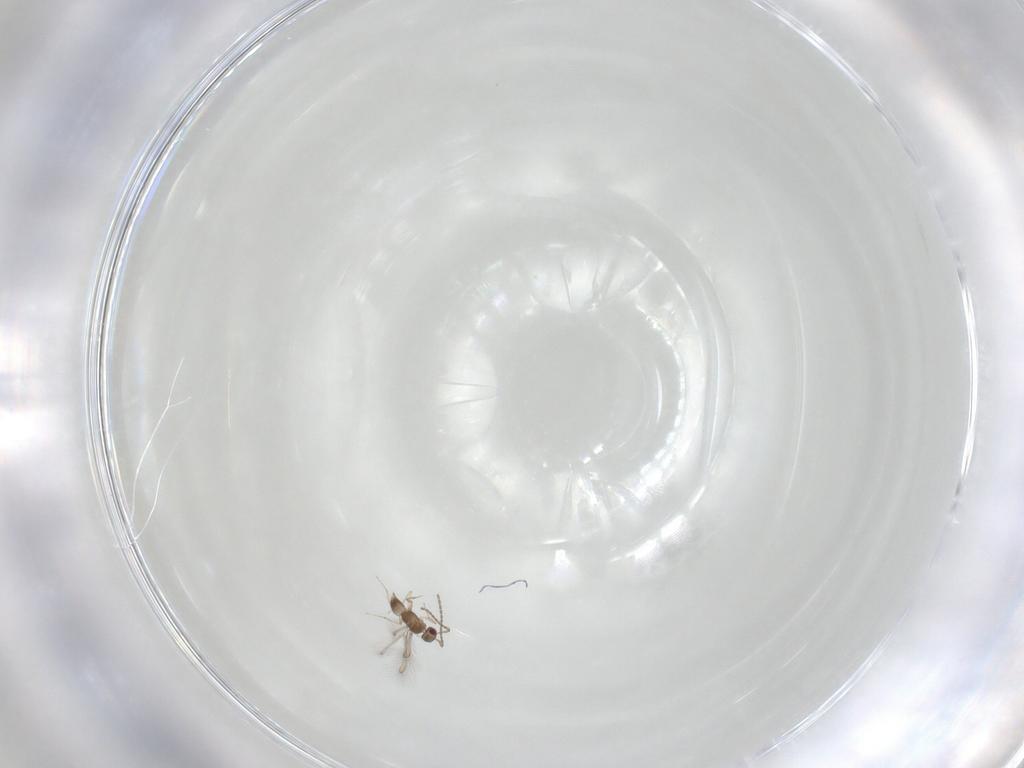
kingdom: Animalia
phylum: Arthropoda
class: Insecta
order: Hymenoptera
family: Mymaridae
